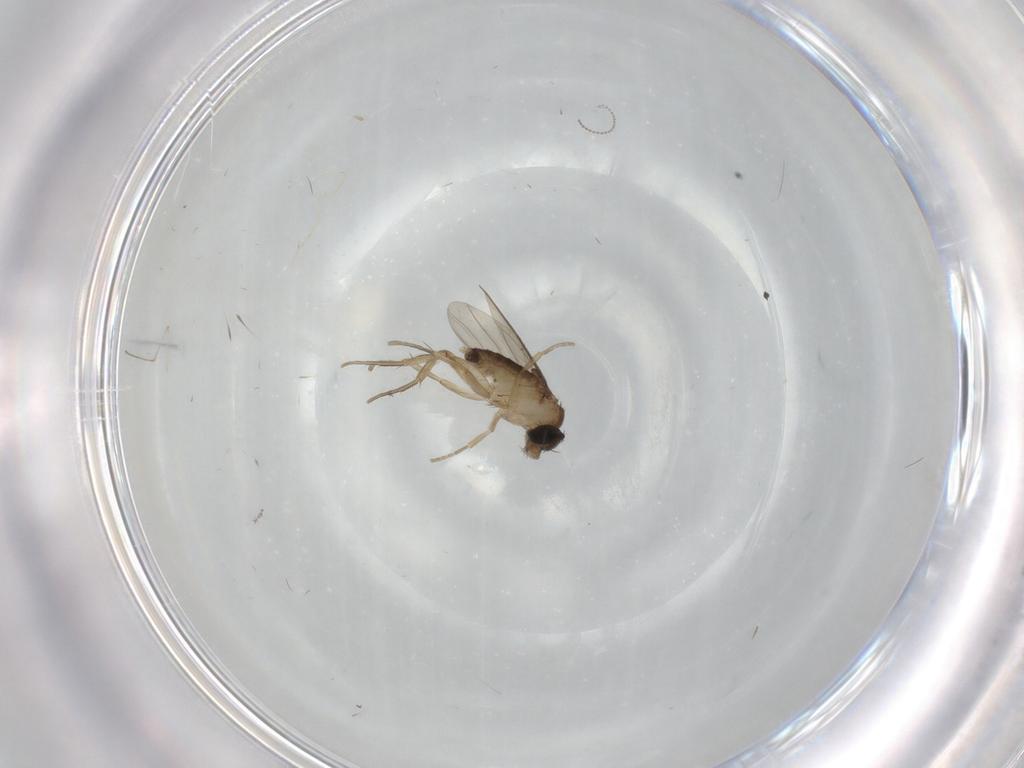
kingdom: Animalia
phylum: Arthropoda
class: Insecta
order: Diptera
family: Phoridae
